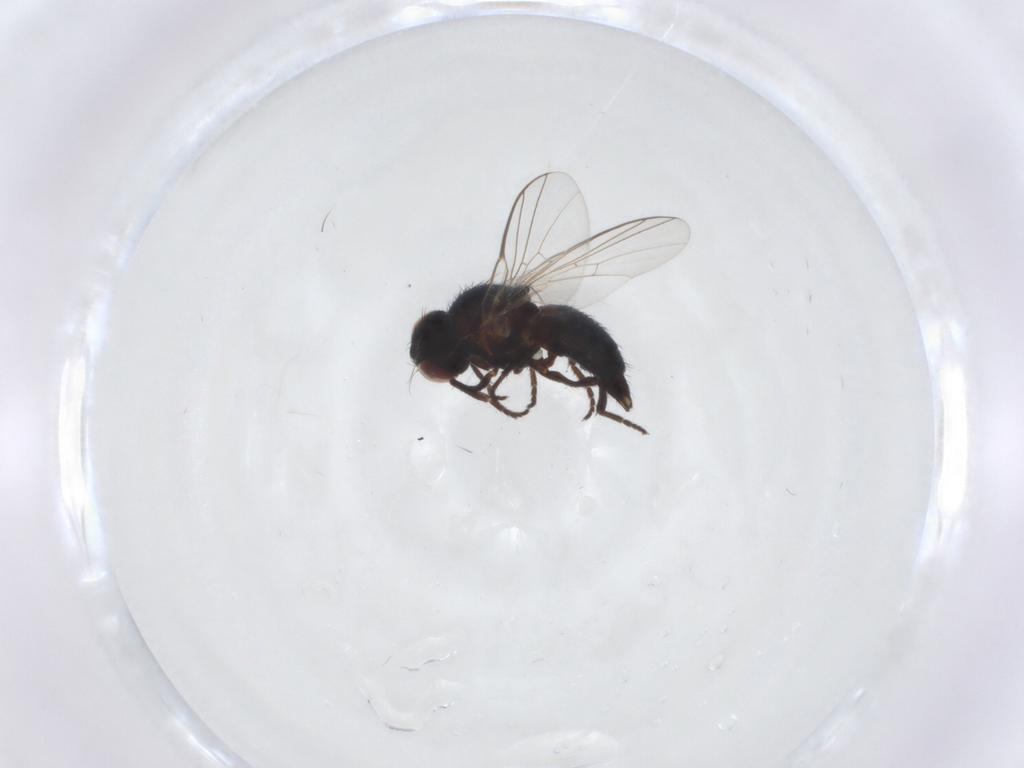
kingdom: Animalia
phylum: Arthropoda
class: Insecta
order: Diptera
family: Agromyzidae
